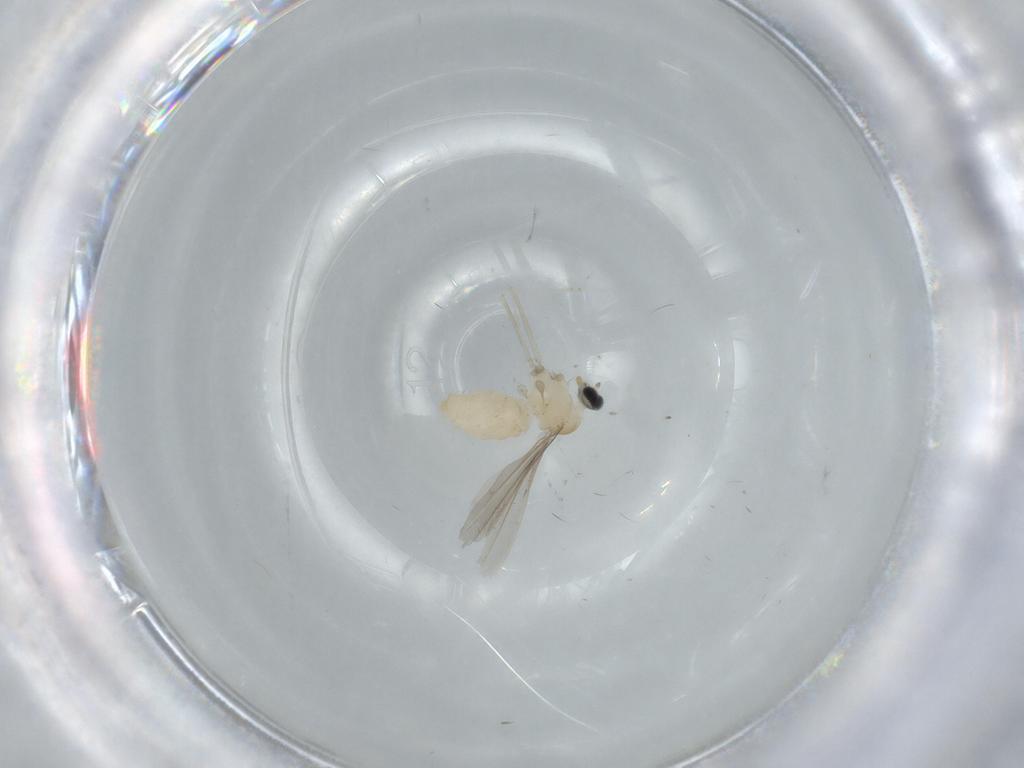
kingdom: Animalia
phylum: Arthropoda
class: Insecta
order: Diptera
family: Cecidomyiidae
